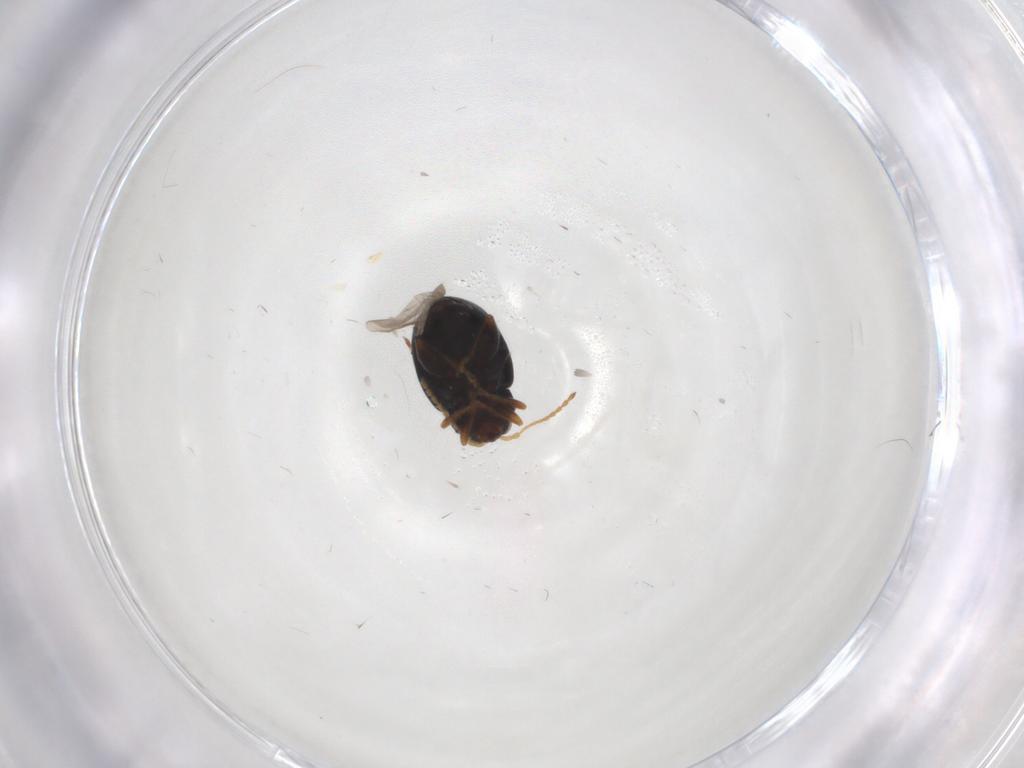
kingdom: Animalia
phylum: Arthropoda
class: Insecta
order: Coleoptera
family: Chrysomelidae
